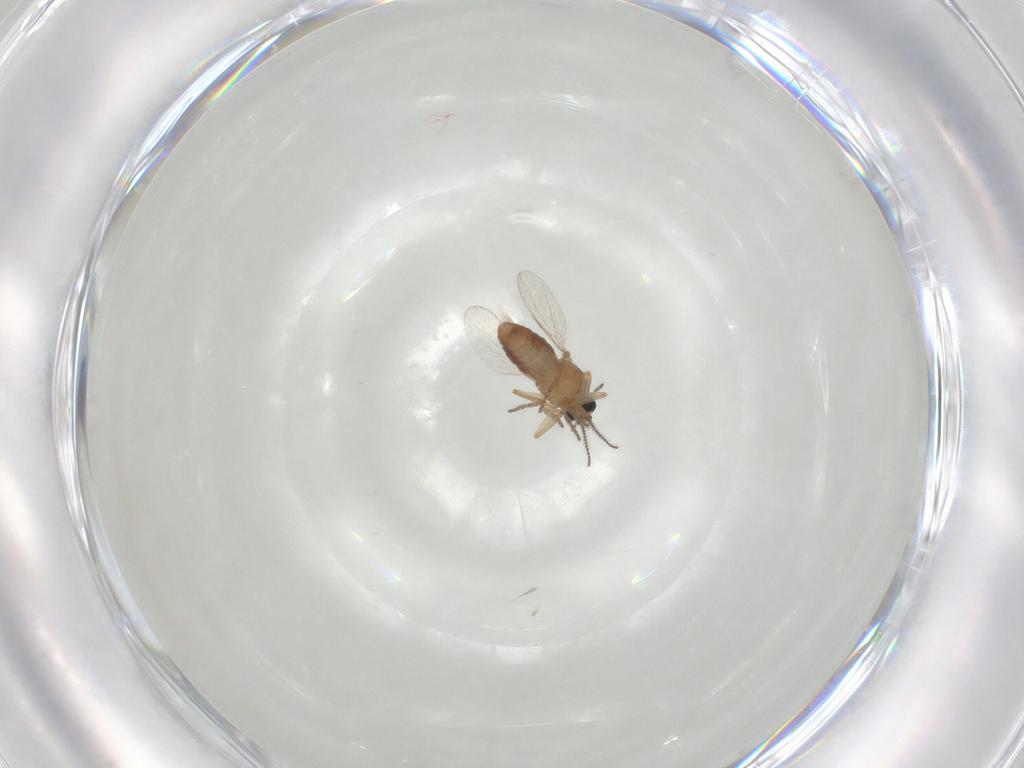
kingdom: Animalia
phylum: Arthropoda
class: Insecta
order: Diptera
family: Ceratopogonidae
